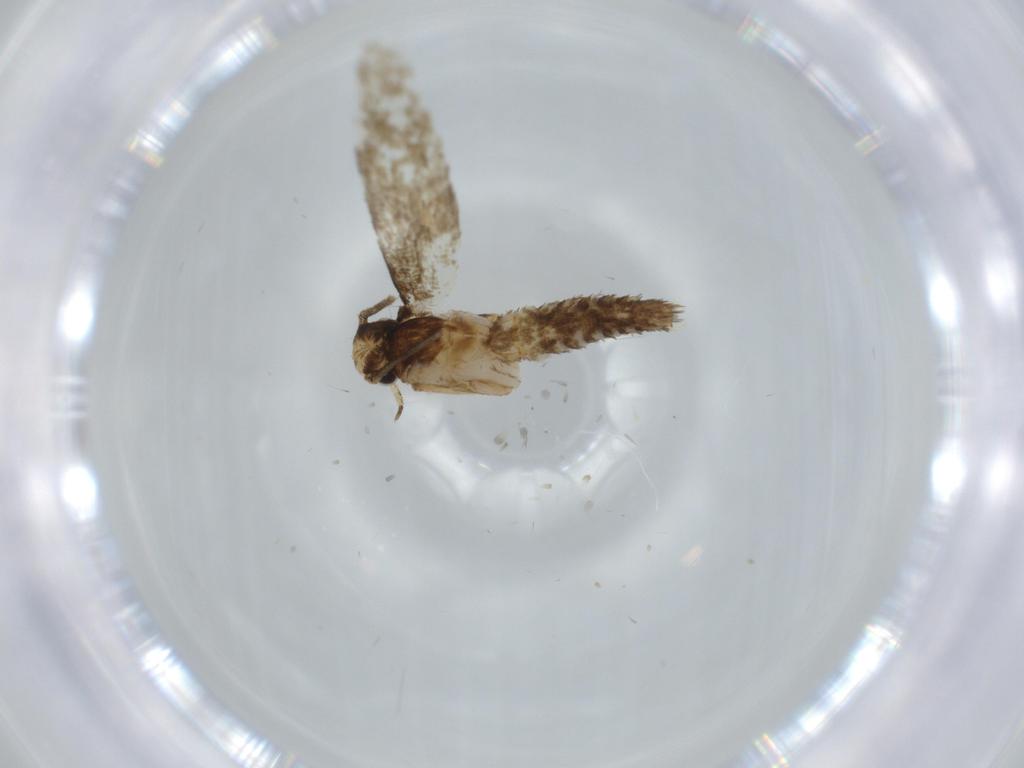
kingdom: Animalia
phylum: Arthropoda
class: Insecta
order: Lepidoptera
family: Tineidae
